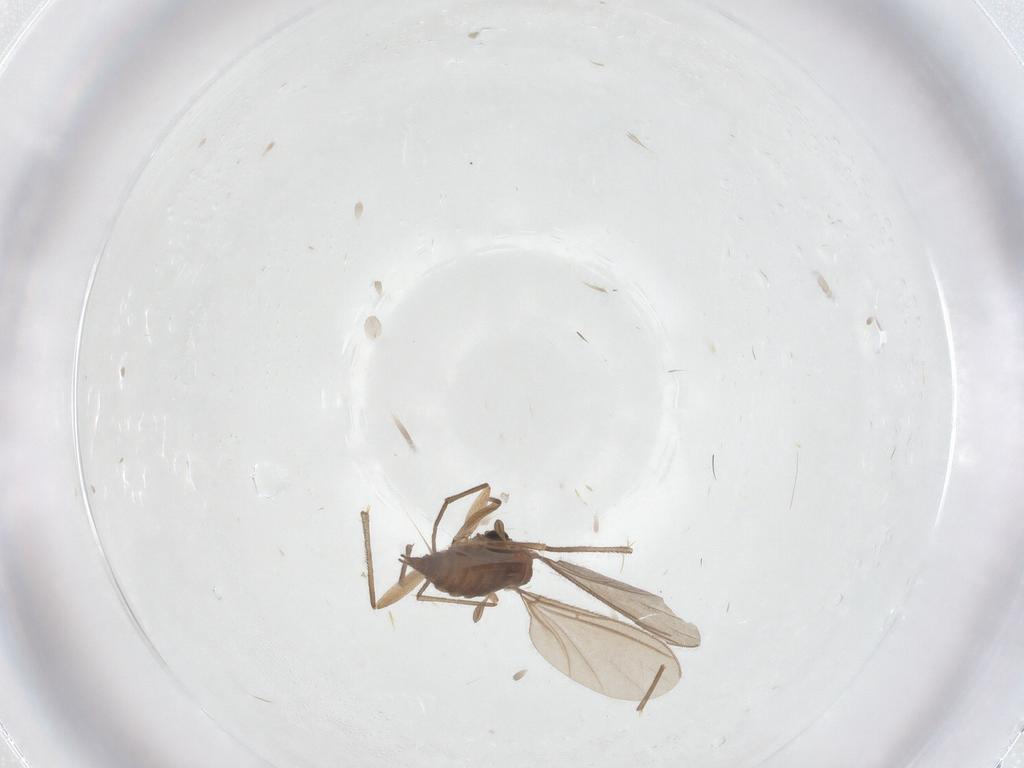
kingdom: Animalia
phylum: Arthropoda
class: Insecta
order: Diptera
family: Sciaridae
